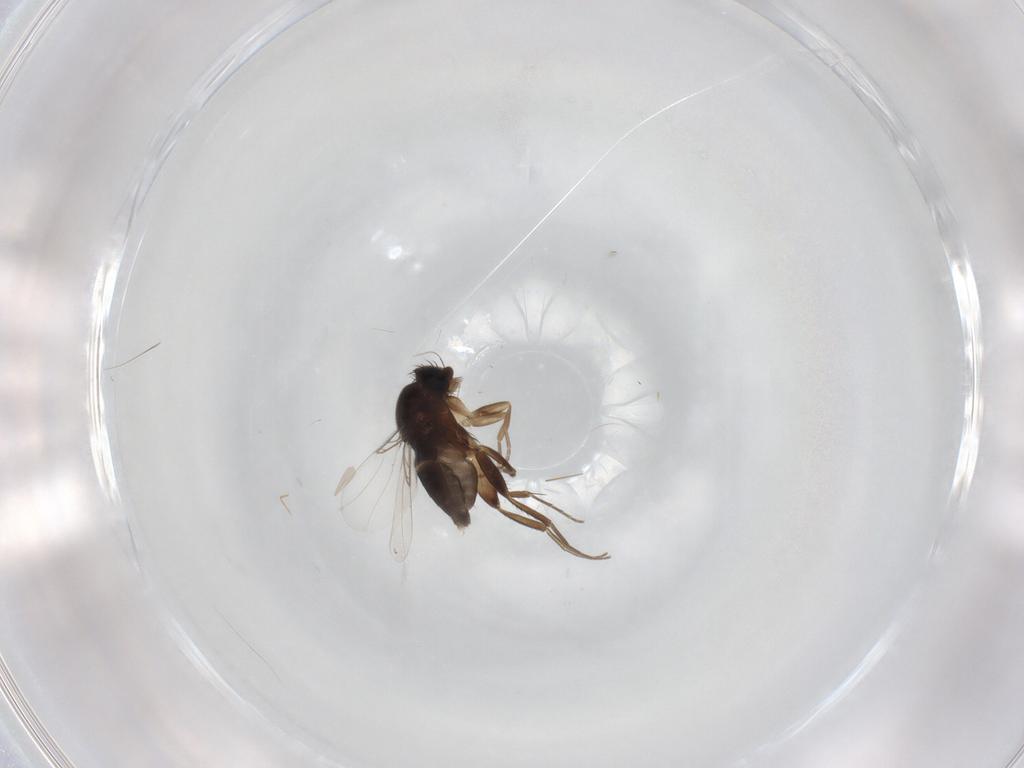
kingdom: Animalia
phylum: Arthropoda
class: Insecta
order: Diptera
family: Phoridae
